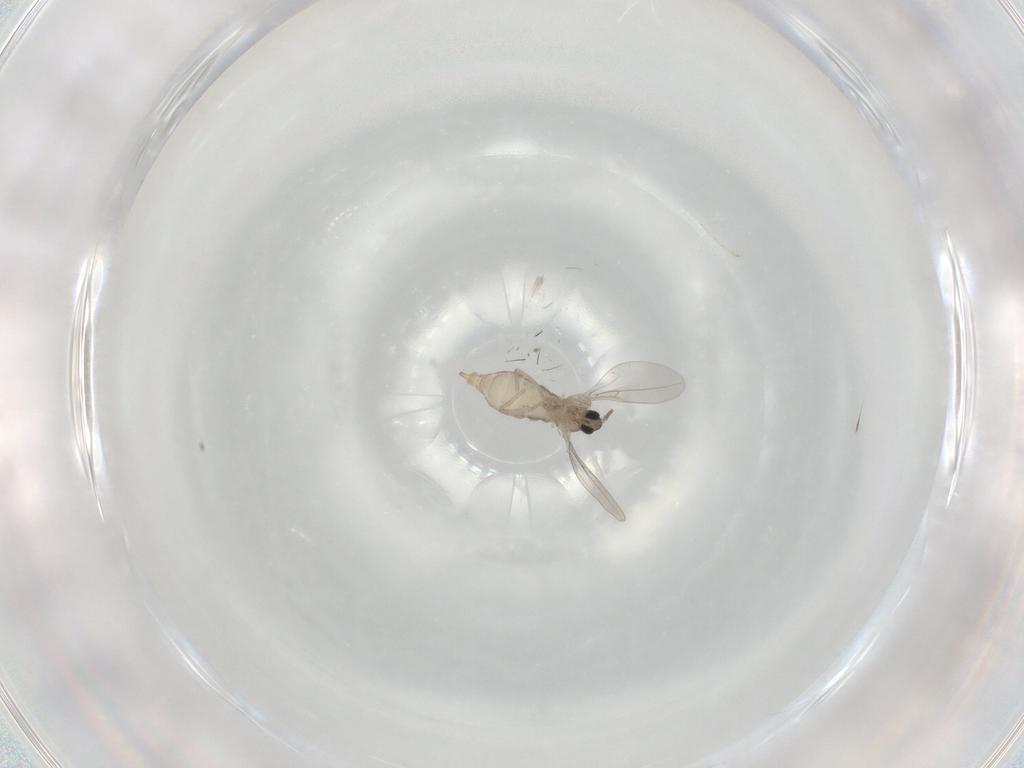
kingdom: Animalia
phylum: Arthropoda
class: Insecta
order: Diptera
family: Cecidomyiidae
